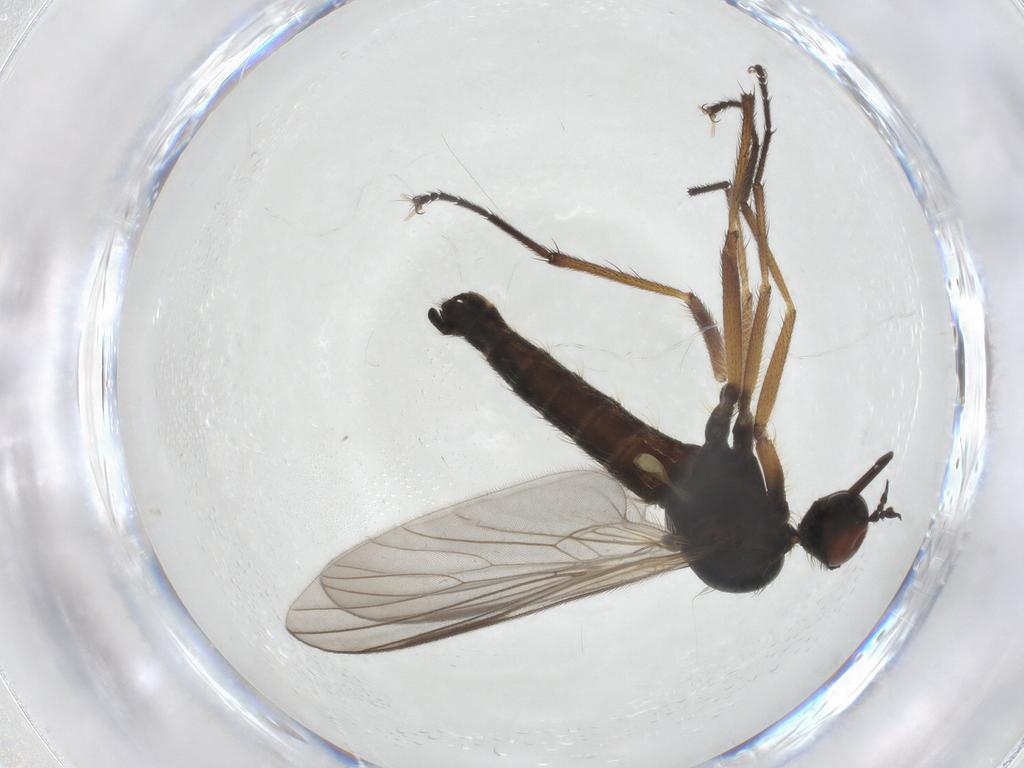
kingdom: Animalia
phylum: Arthropoda
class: Insecta
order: Diptera
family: Empididae
